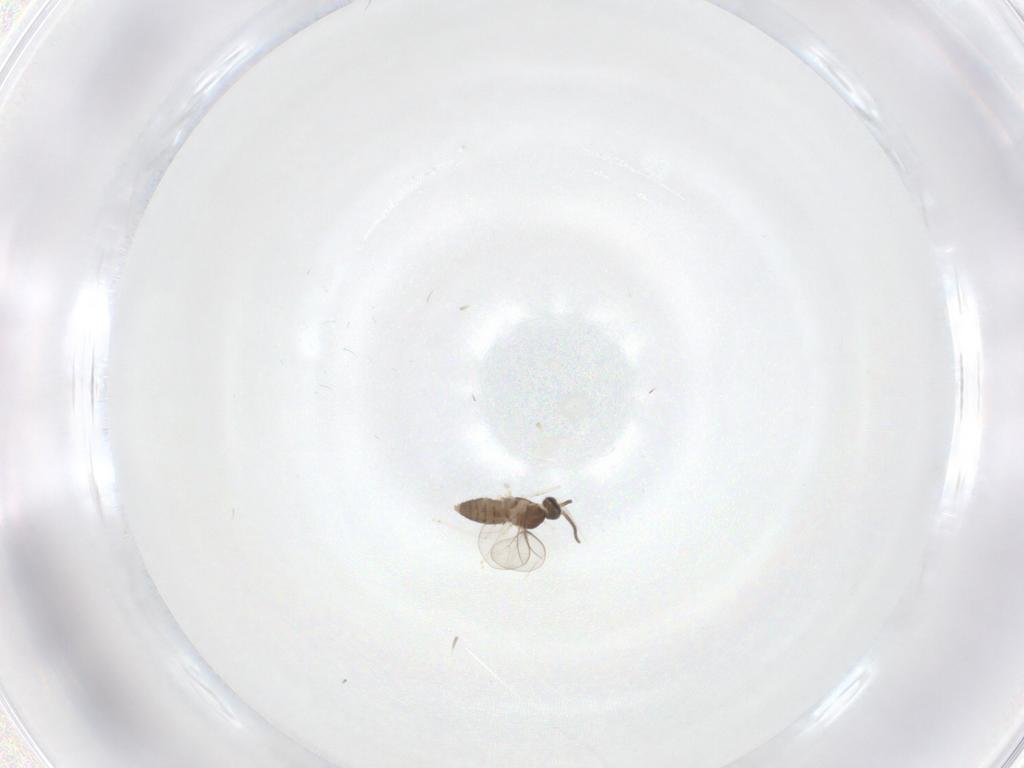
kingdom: Animalia
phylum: Arthropoda
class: Insecta
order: Diptera
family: Cecidomyiidae
